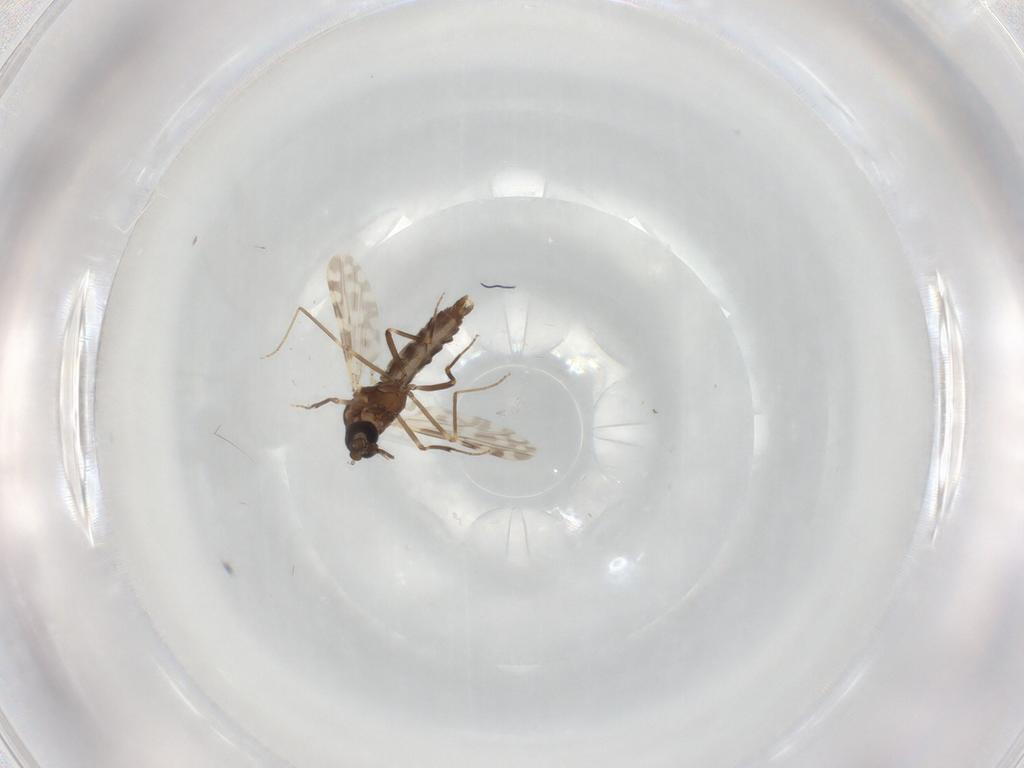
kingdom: Animalia
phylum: Arthropoda
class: Insecta
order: Diptera
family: Ceratopogonidae
